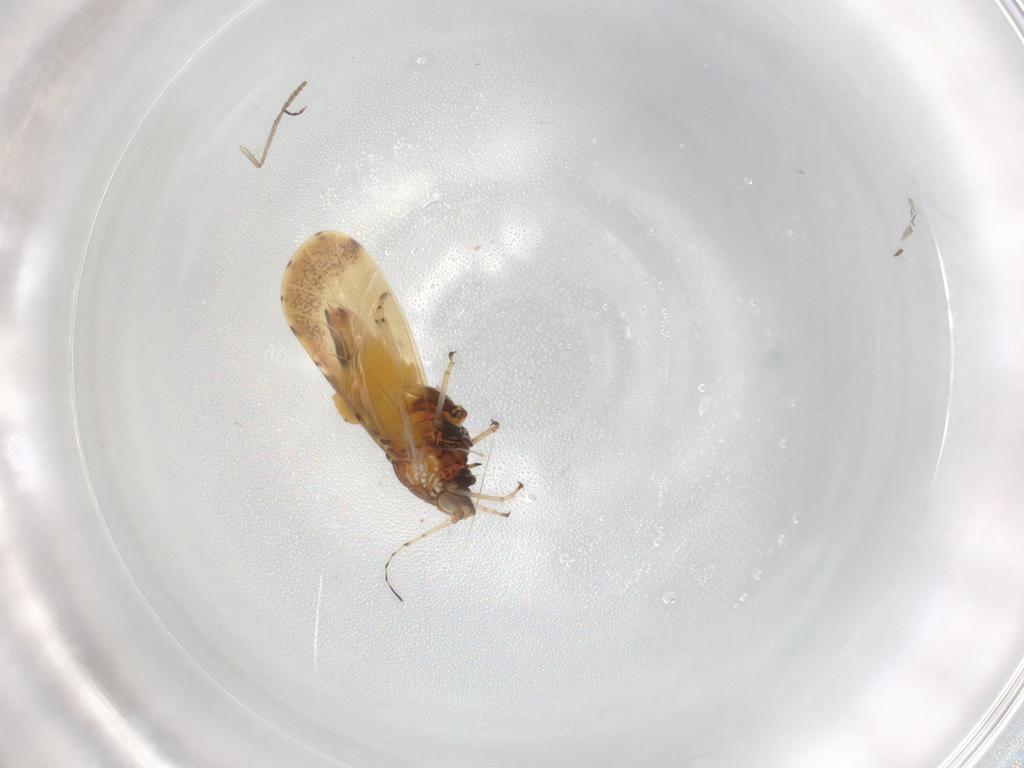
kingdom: Animalia
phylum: Arthropoda
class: Insecta
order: Hemiptera
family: Psyllidae
